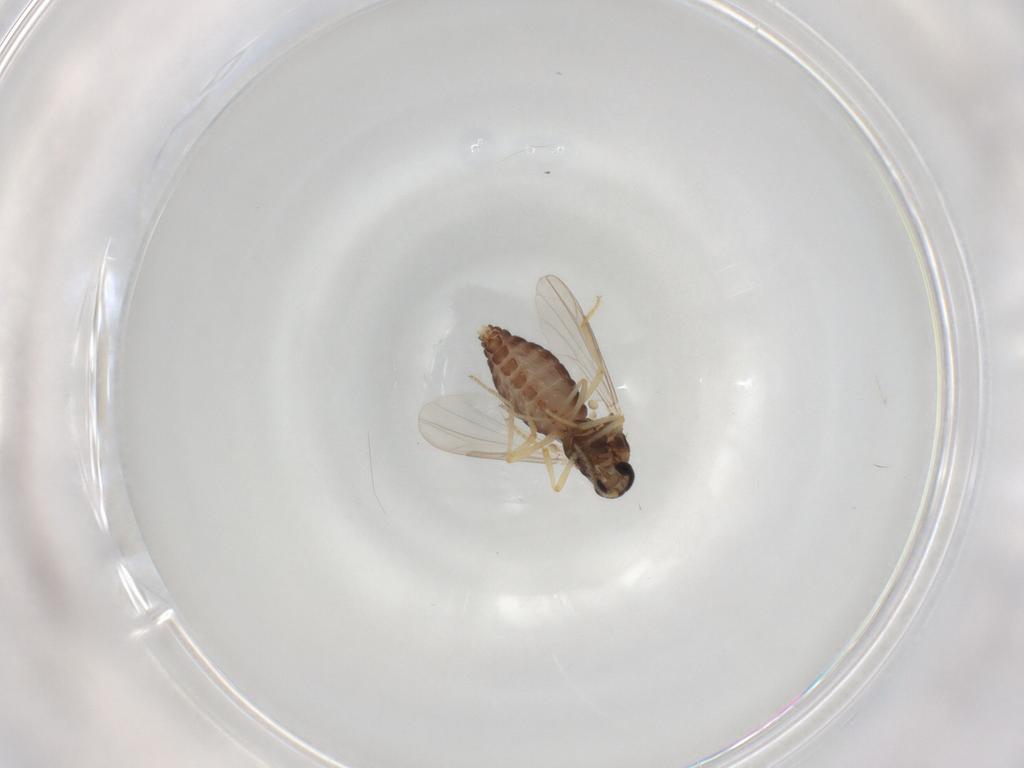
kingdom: Animalia
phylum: Arthropoda
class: Insecta
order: Diptera
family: Ceratopogonidae
